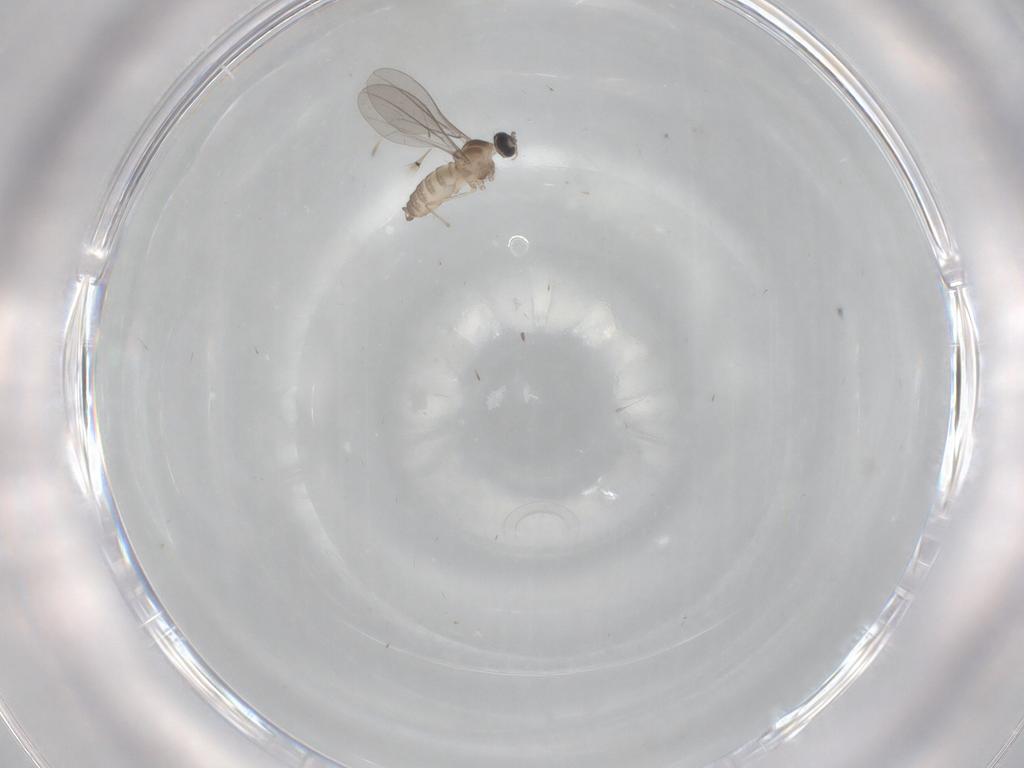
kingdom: Animalia
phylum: Arthropoda
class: Insecta
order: Diptera
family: Cecidomyiidae
